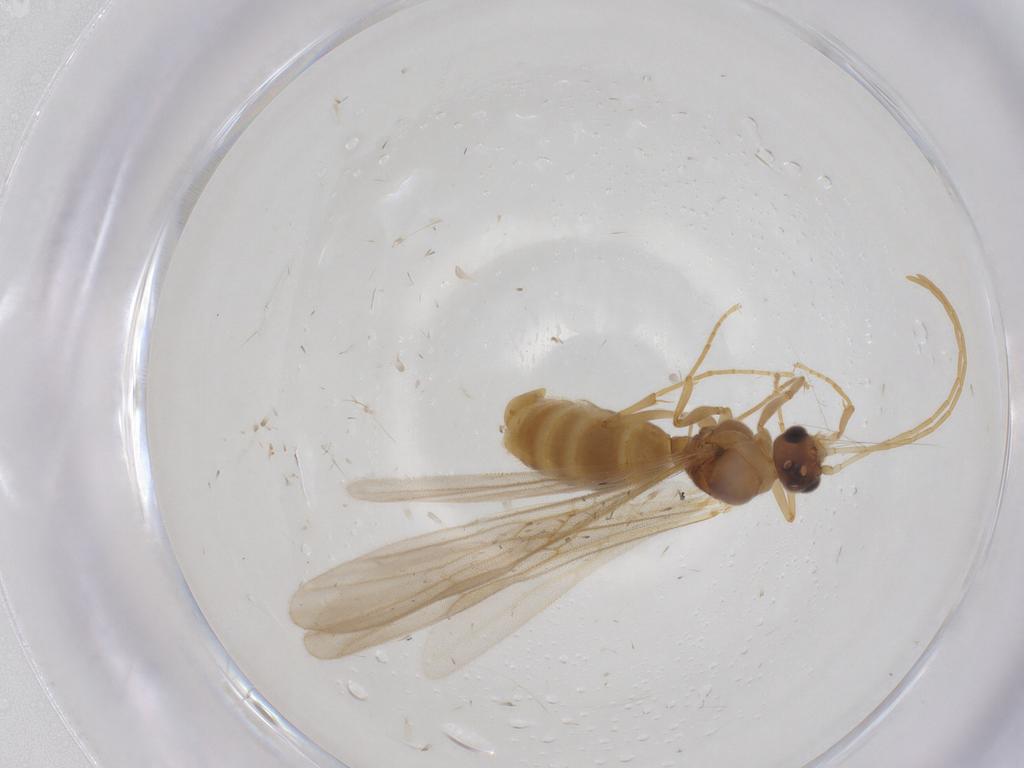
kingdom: Animalia
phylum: Arthropoda
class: Insecta
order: Hymenoptera
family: Formicidae
